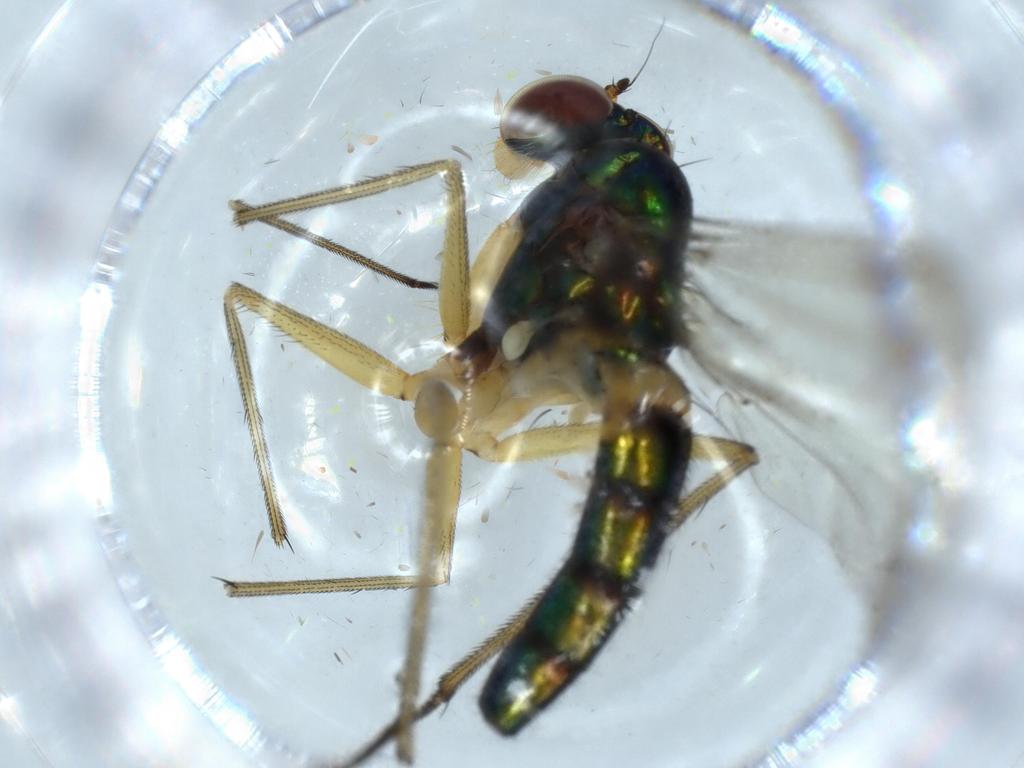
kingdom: Animalia
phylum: Arthropoda
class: Insecta
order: Diptera
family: Dolichopodidae
